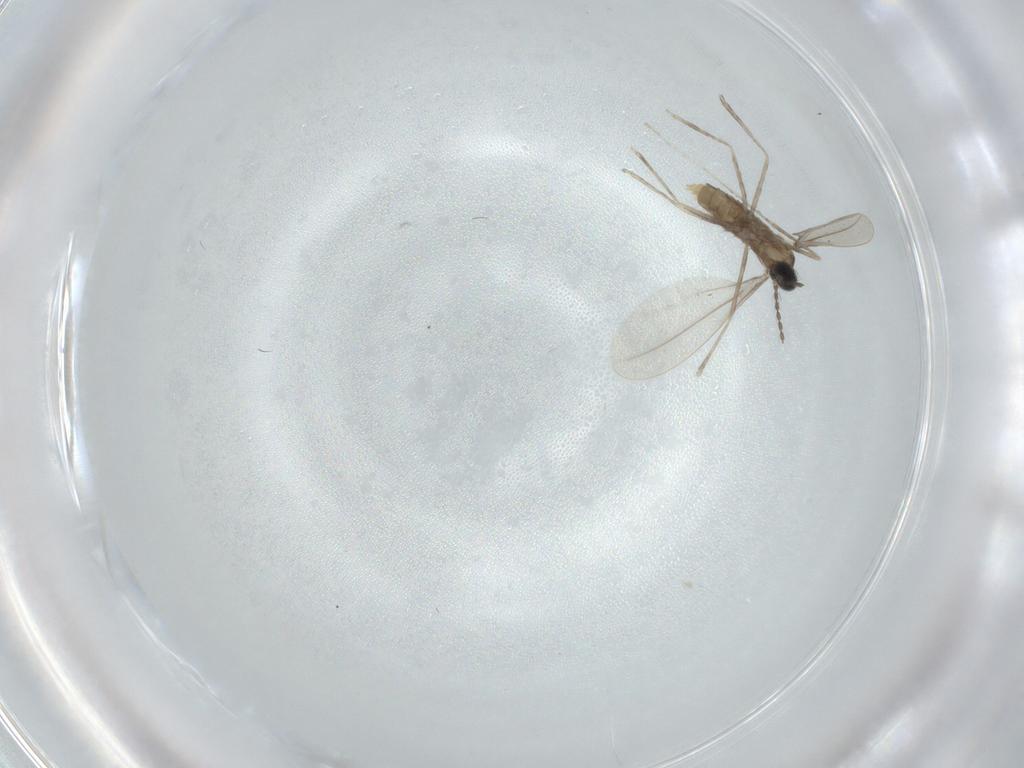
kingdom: Animalia
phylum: Arthropoda
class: Insecta
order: Diptera
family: Cecidomyiidae
